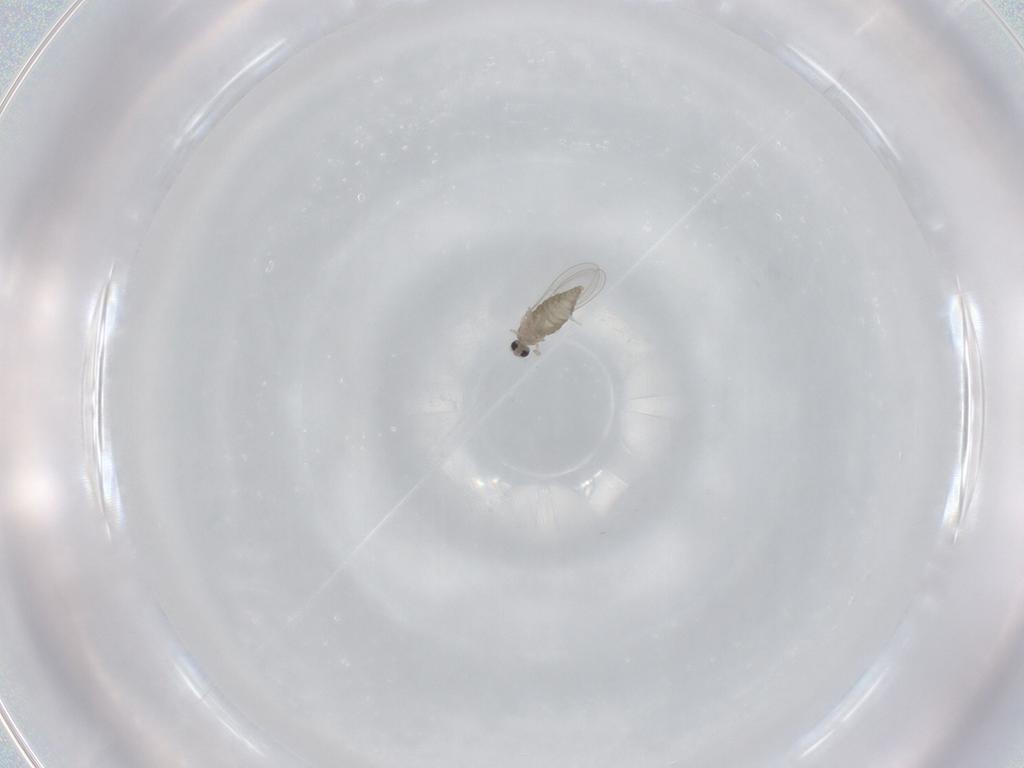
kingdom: Animalia
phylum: Arthropoda
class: Insecta
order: Diptera
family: Cecidomyiidae
